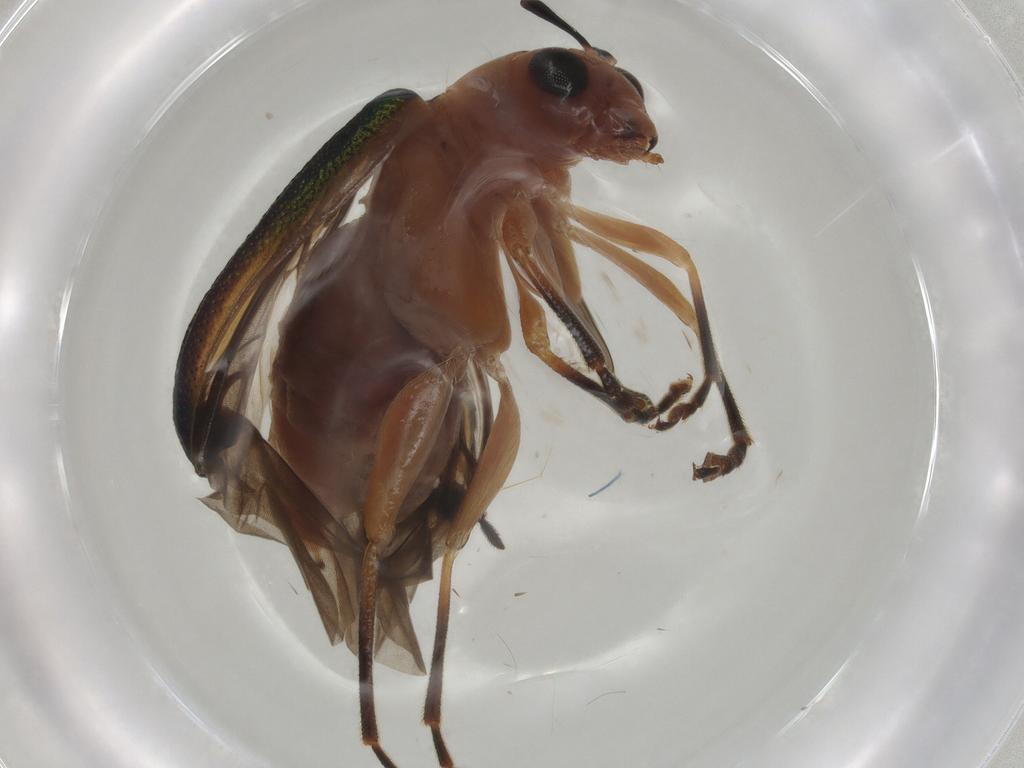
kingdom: Animalia
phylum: Arthropoda
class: Insecta
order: Coleoptera
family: Chrysomelidae
